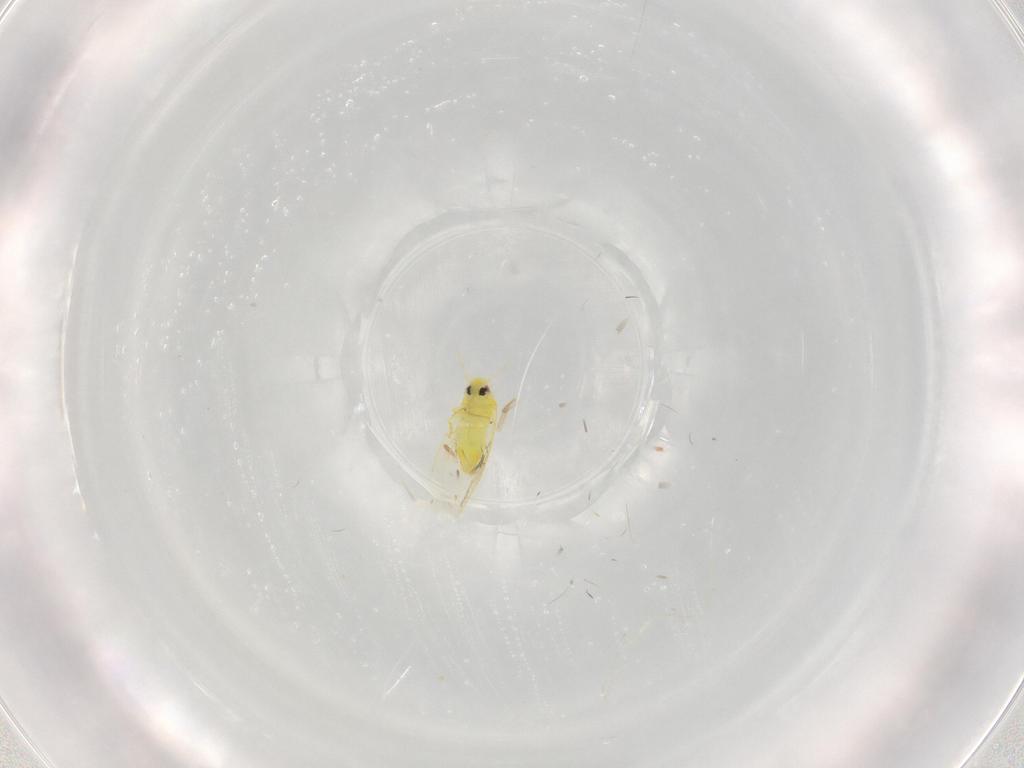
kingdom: Animalia
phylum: Arthropoda
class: Insecta
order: Hemiptera
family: Aleyrodidae
